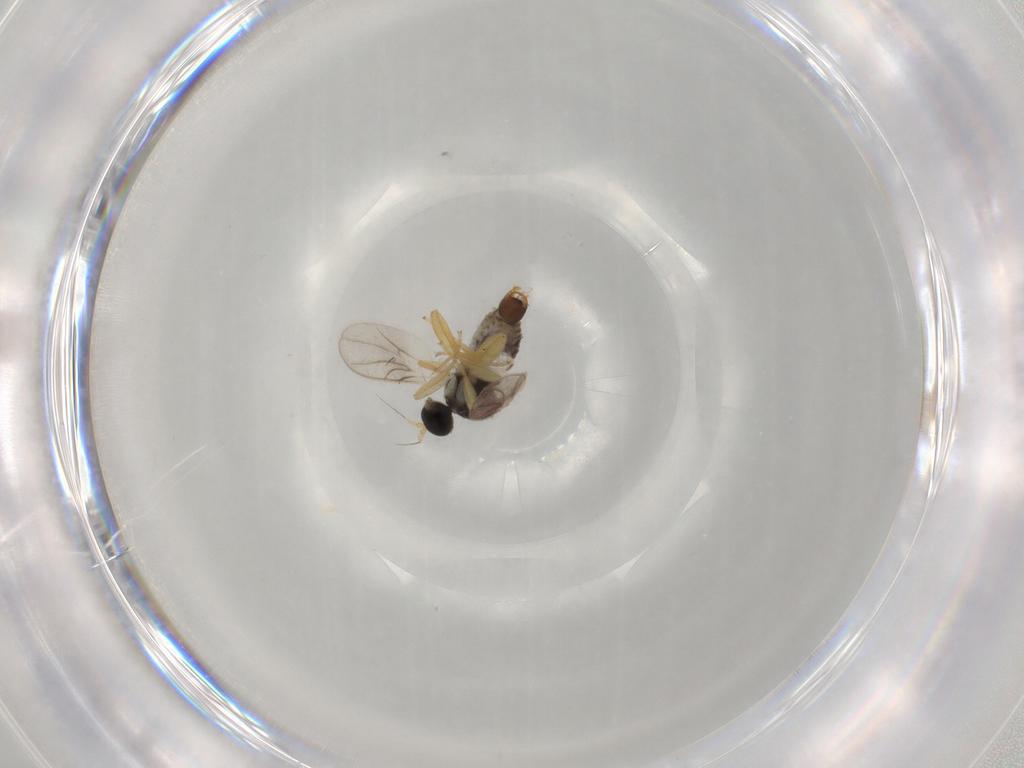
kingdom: Animalia
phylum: Arthropoda
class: Insecta
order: Diptera
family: Hybotidae
